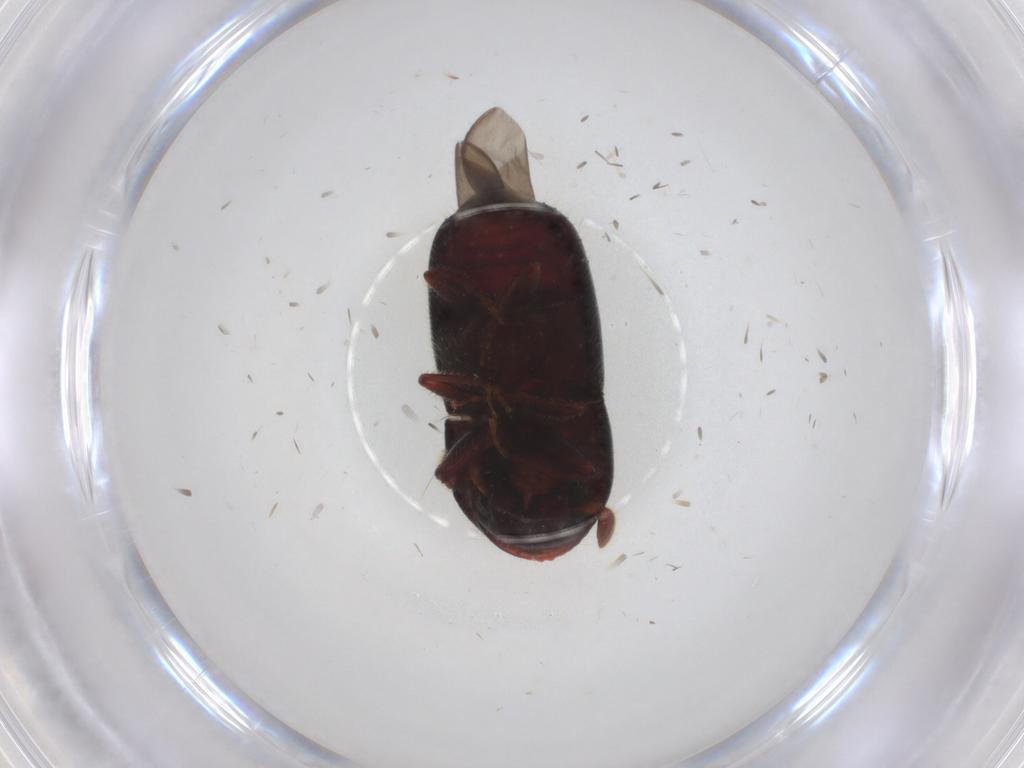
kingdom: Animalia
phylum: Arthropoda
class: Insecta
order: Coleoptera
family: Curculionidae
